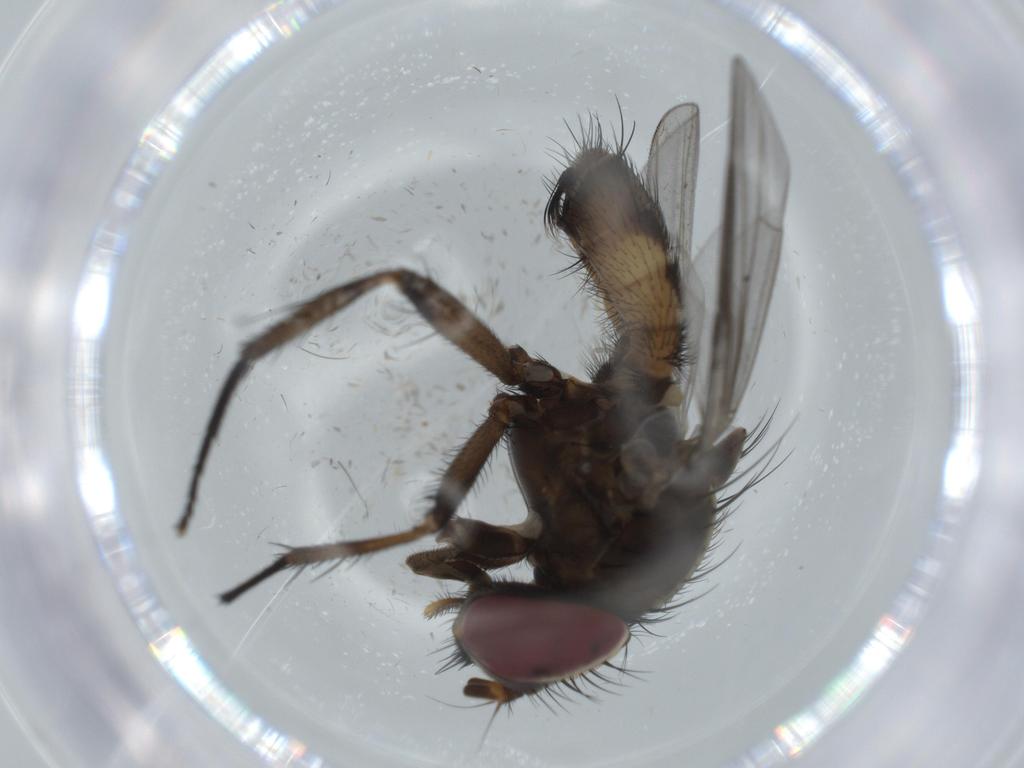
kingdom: Animalia
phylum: Arthropoda
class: Insecta
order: Diptera
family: Cecidomyiidae
